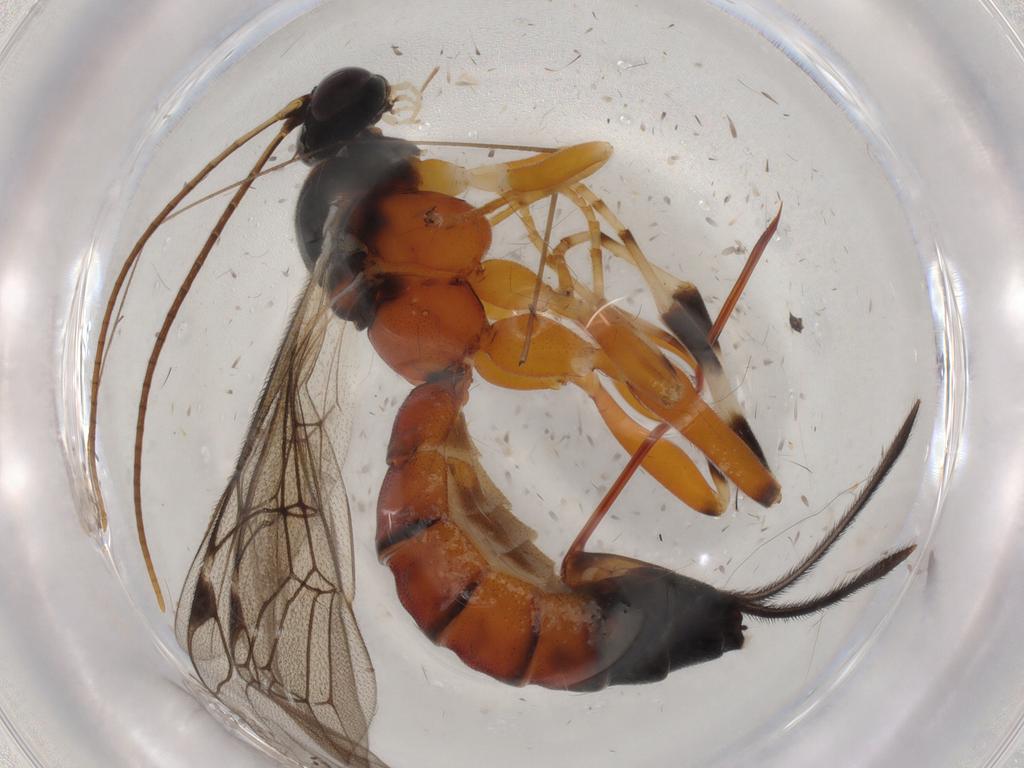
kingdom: Animalia
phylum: Arthropoda
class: Insecta
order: Hymenoptera
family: Ichneumonidae
